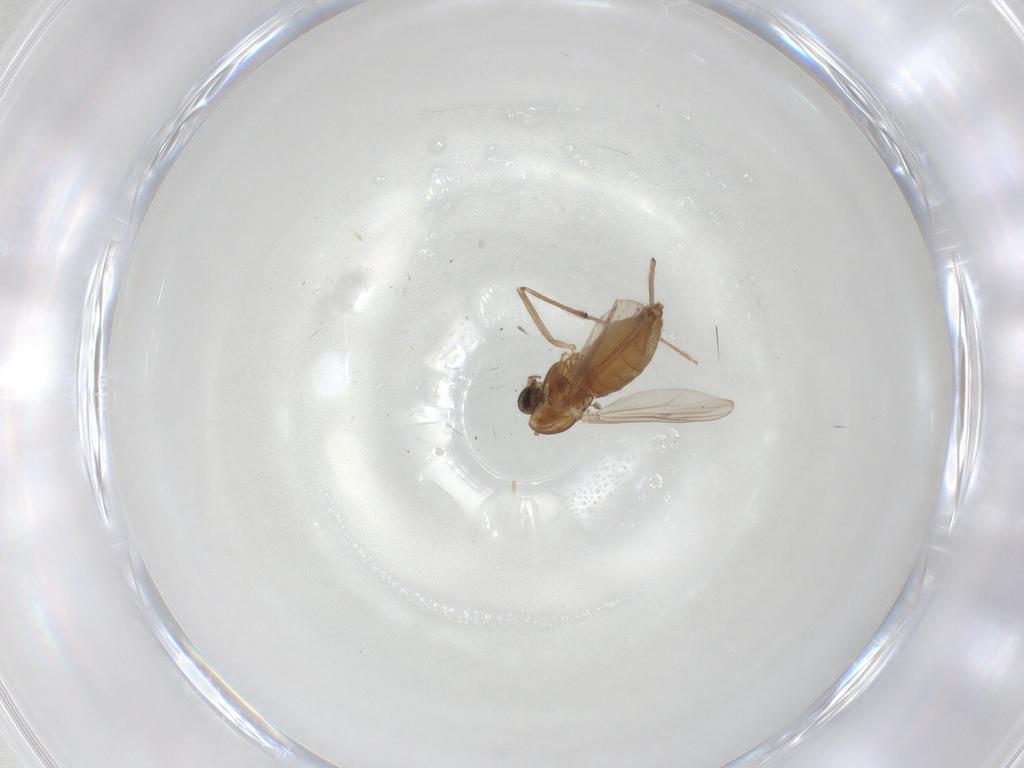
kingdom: Animalia
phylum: Arthropoda
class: Insecta
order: Diptera
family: Chironomidae
